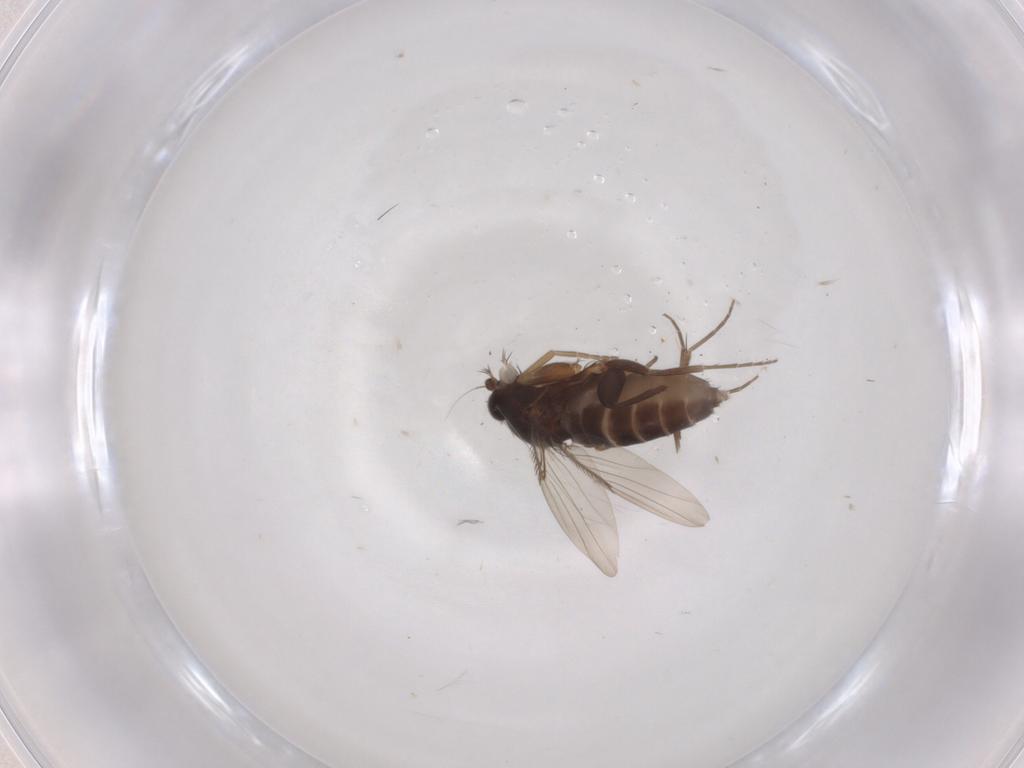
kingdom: Animalia
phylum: Arthropoda
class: Insecta
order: Diptera
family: Phoridae
